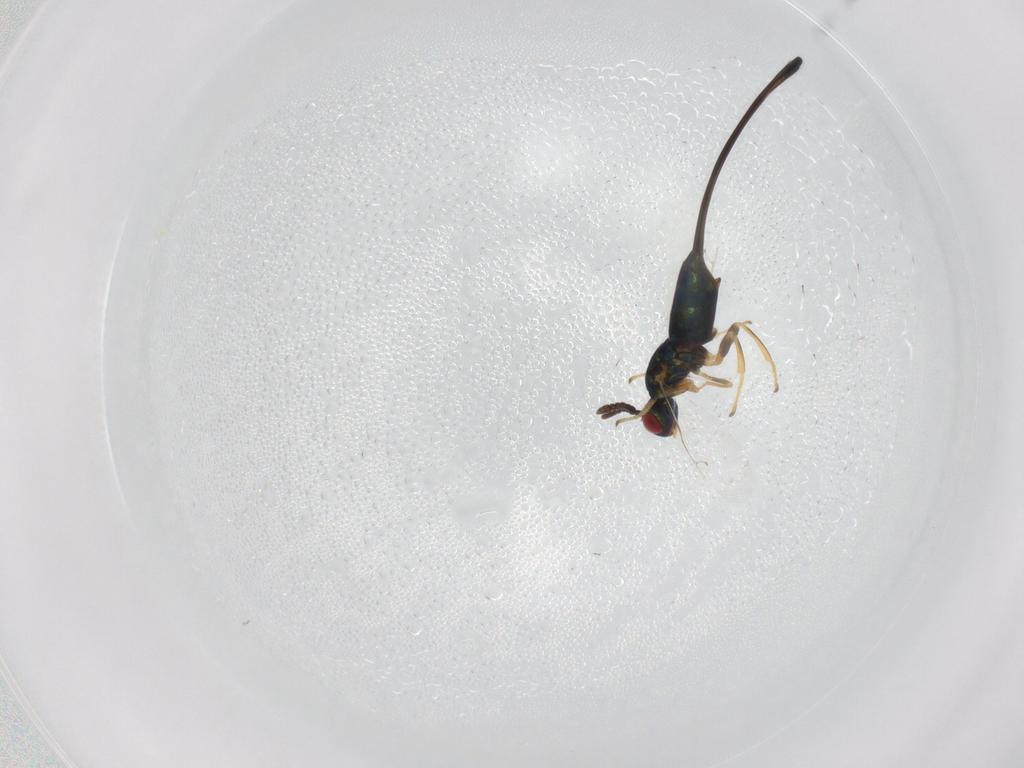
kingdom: Animalia
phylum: Arthropoda
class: Insecta
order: Hymenoptera
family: Pteromalidae
